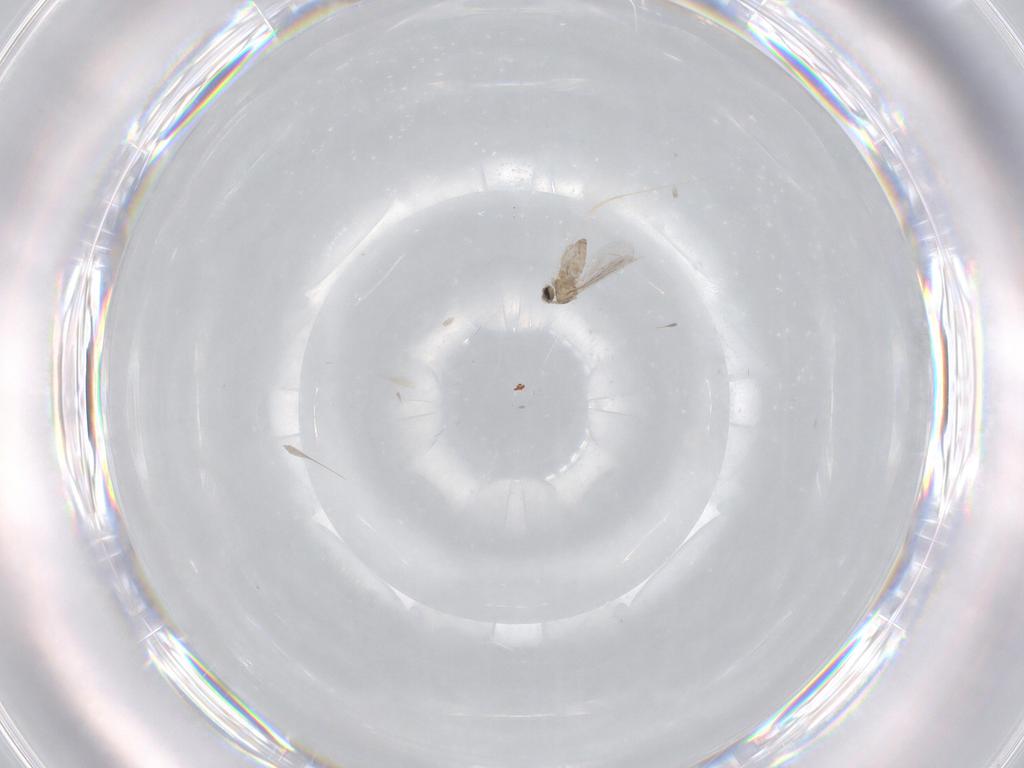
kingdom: Animalia
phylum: Arthropoda
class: Insecta
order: Diptera
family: Cecidomyiidae
